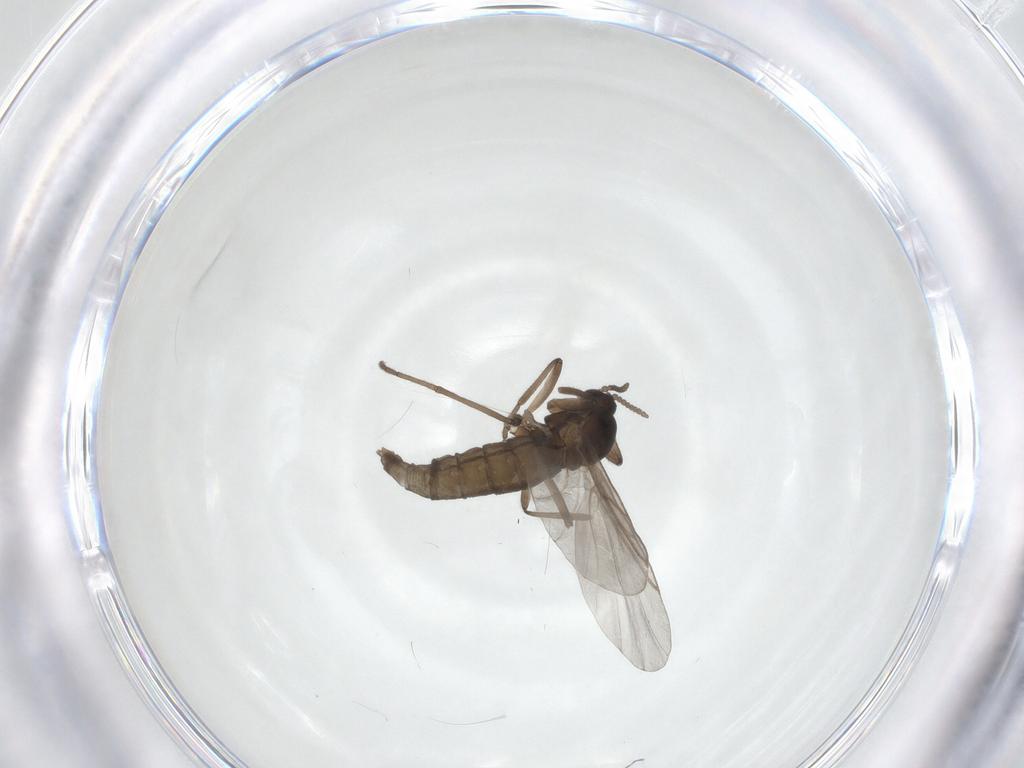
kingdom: Animalia
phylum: Arthropoda
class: Insecta
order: Diptera
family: Cecidomyiidae
